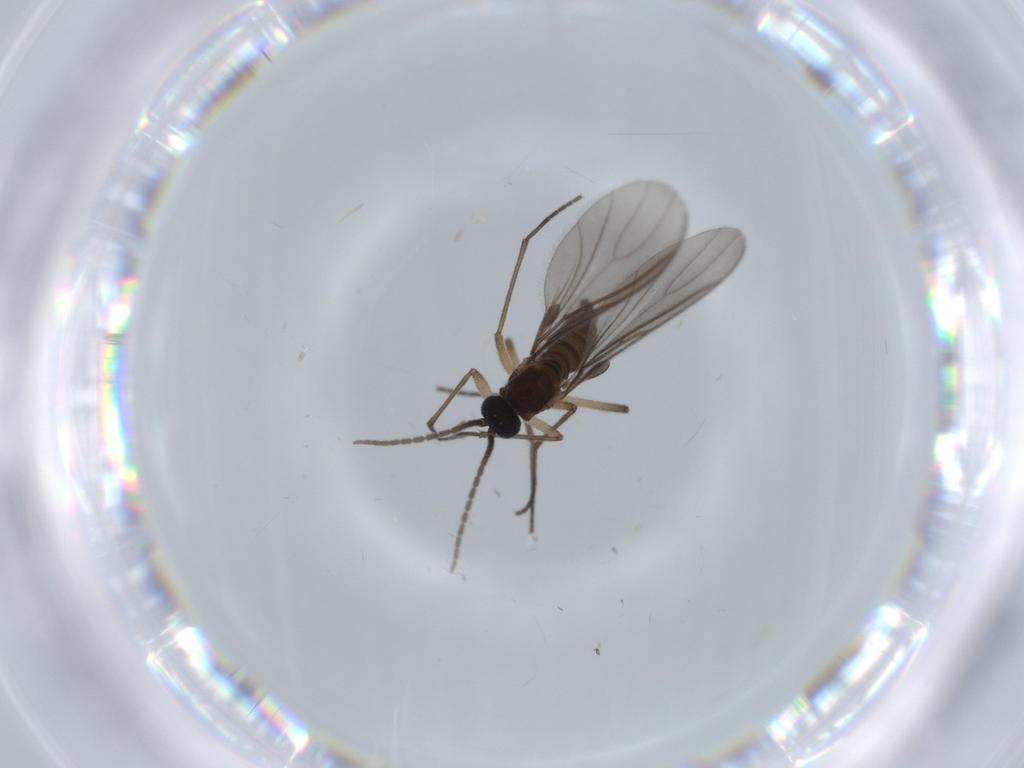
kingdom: Animalia
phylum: Arthropoda
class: Insecta
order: Diptera
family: Sciaridae
